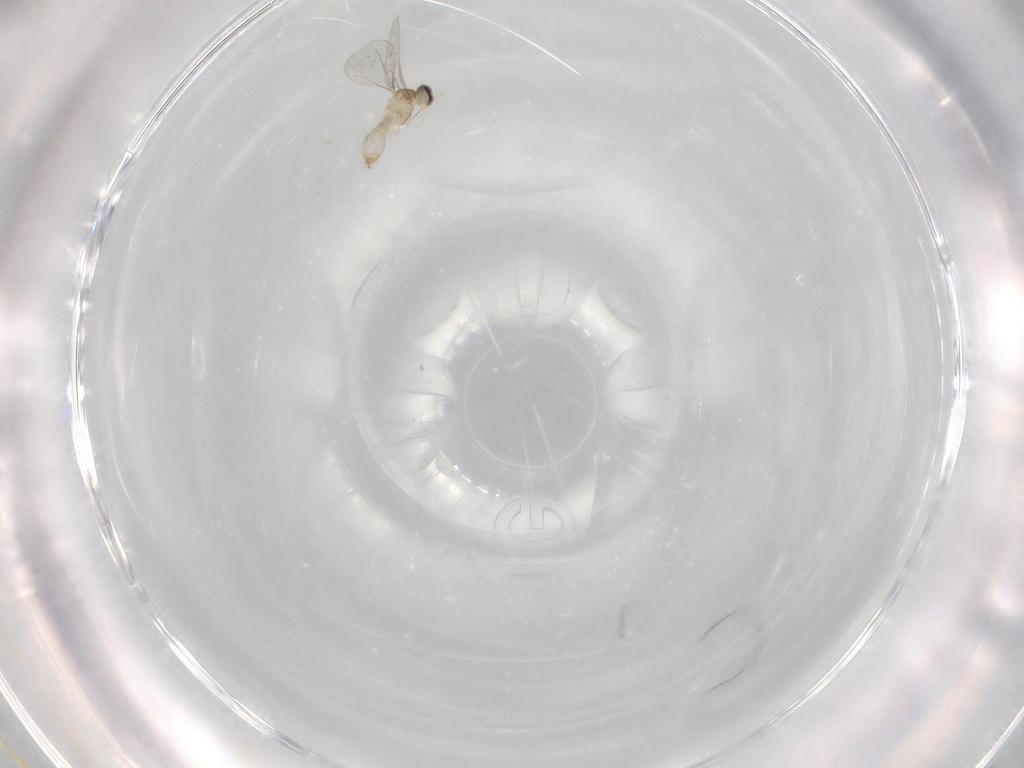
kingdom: Animalia
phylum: Arthropoda
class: Insecta
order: Diptera
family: Cecidomyiidae
